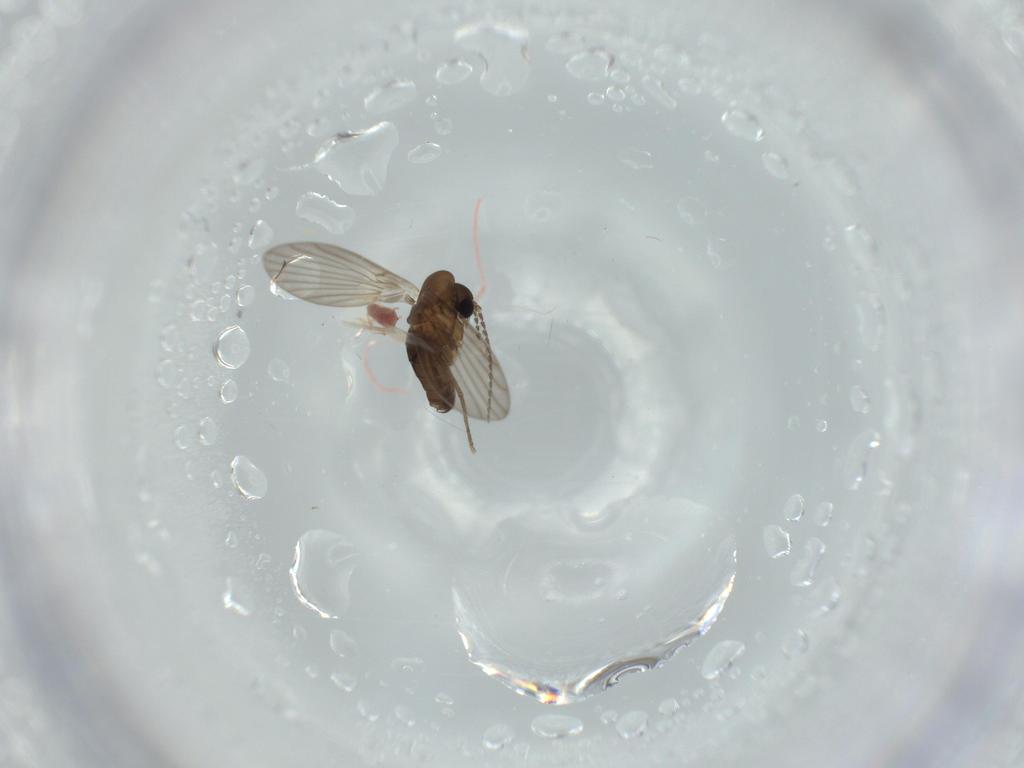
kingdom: Animalia
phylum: Arthropoda
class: Insecta
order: Diptera
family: Psychodidae
